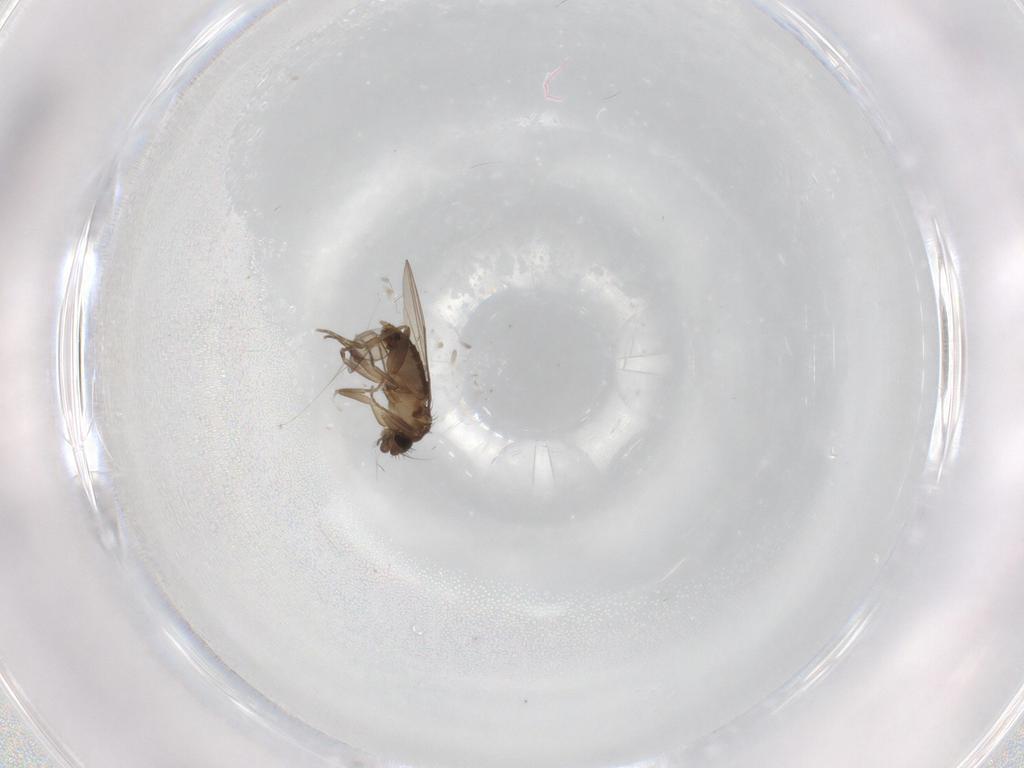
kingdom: Animalia
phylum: Arthropoda
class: Insecta
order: Diptera
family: Phoridae
